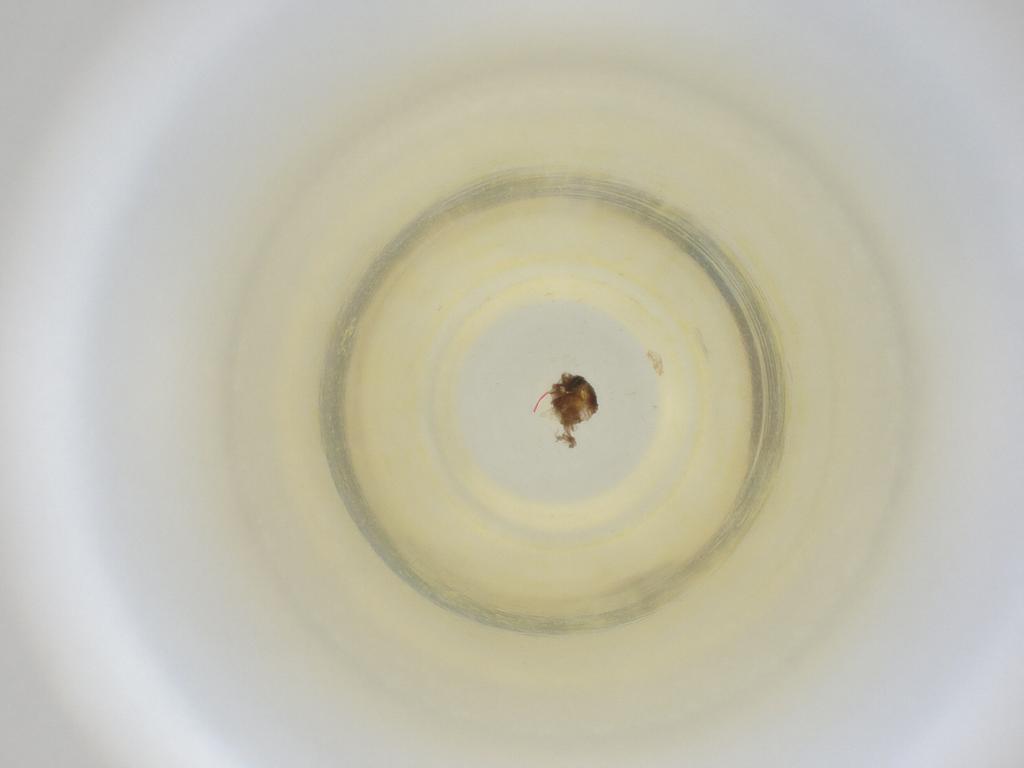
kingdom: Animalia
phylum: Arthropoda
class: Insecta
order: Diptera
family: Cecidomyiidae
